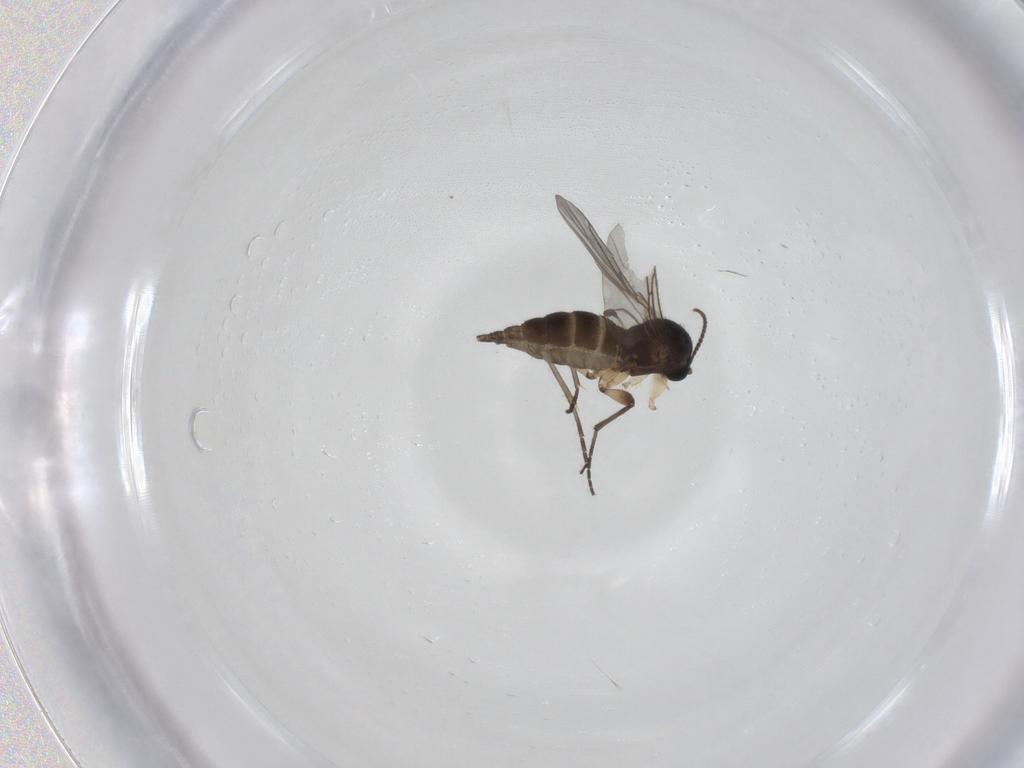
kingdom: Animalia
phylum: Arthropoda
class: Insecta
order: Diptera
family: Sciaridae
